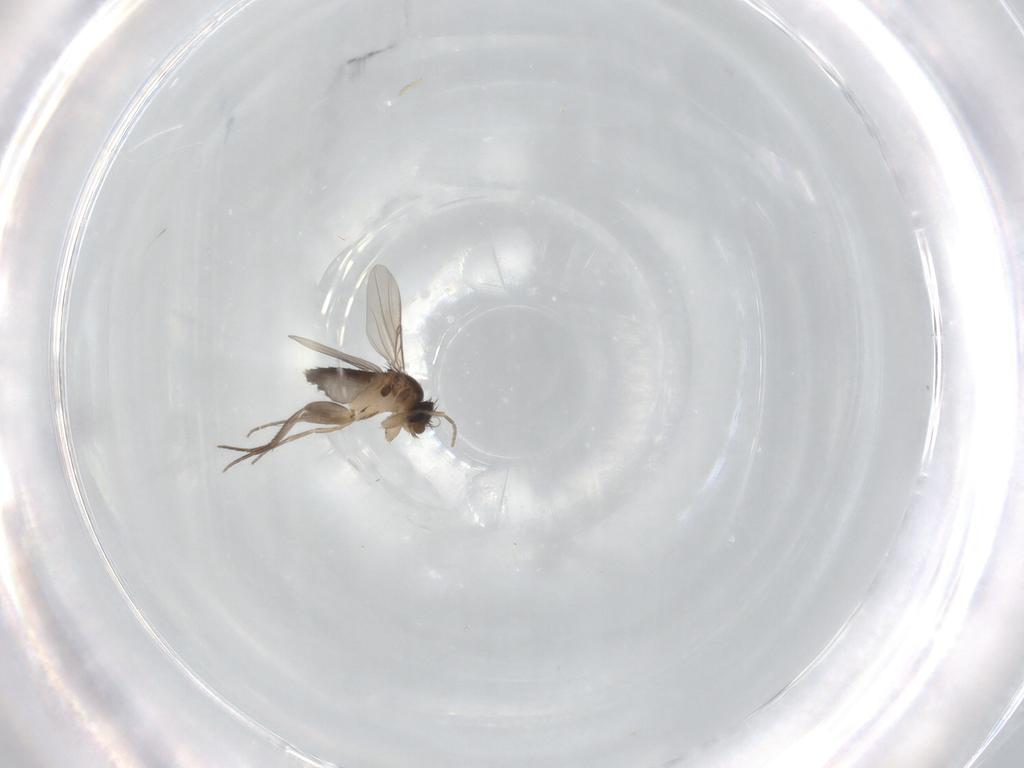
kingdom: Animalia
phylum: Arthropoda
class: Insecta
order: Diptera
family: Phoridae
